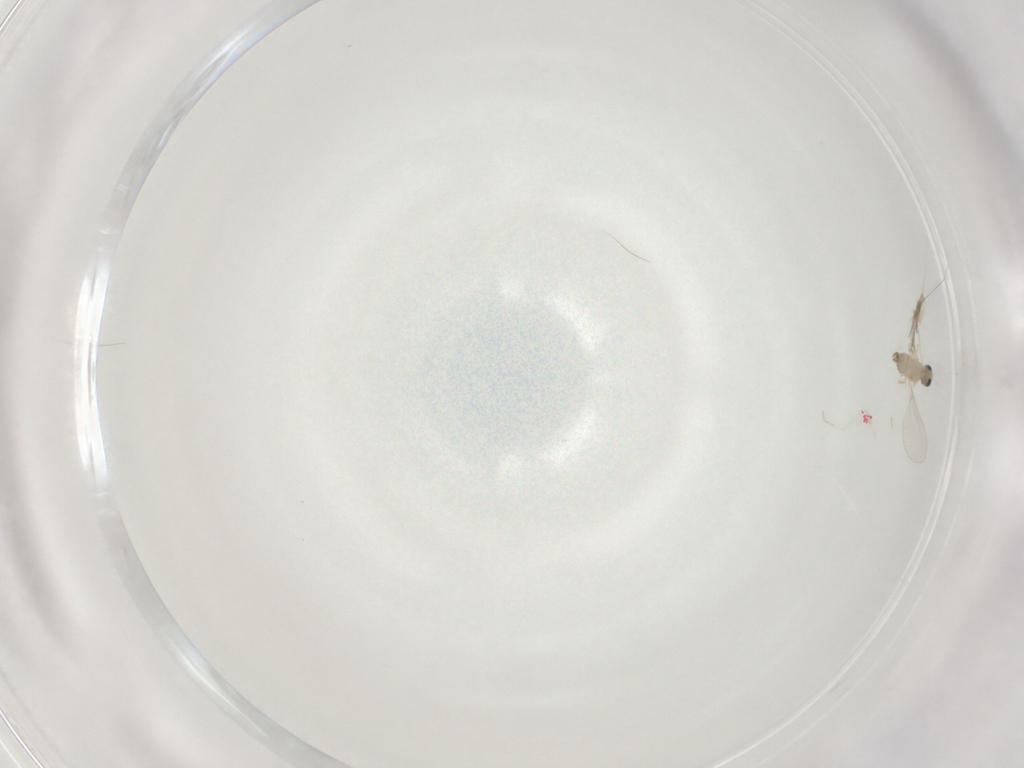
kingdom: Animalia
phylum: Arthropoda
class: Insecta
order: Diptera
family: Cecidomyiidae
